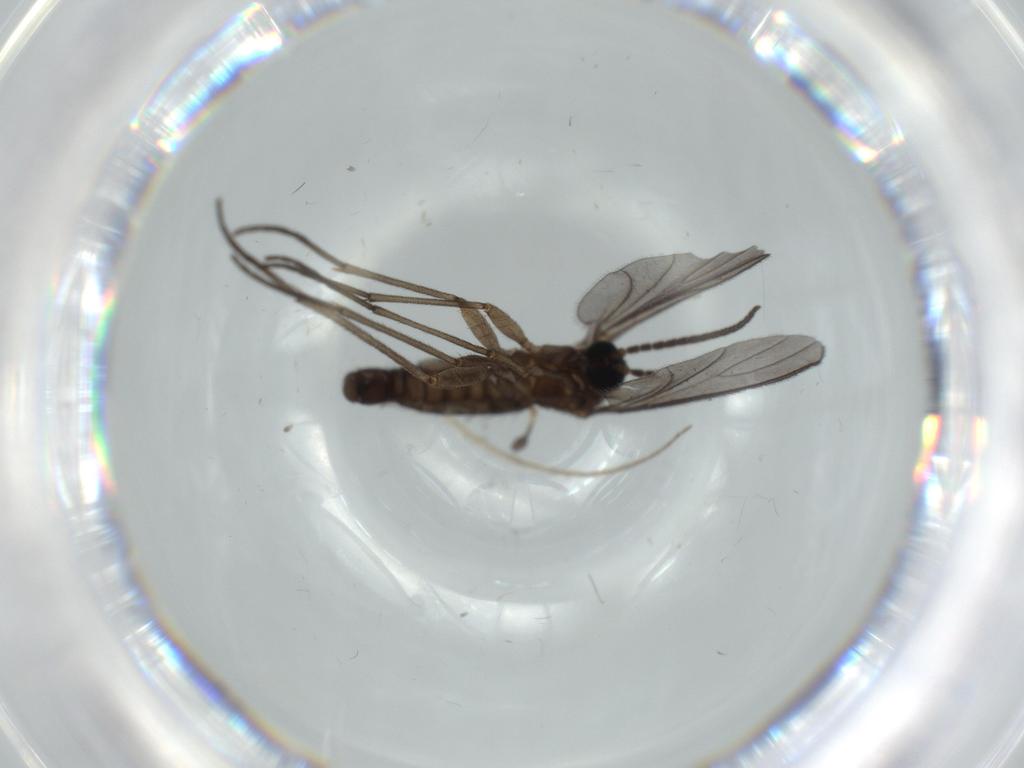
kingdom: Animalia
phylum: Arthropoda
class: Insecta
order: Diptera
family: Sciaridae
